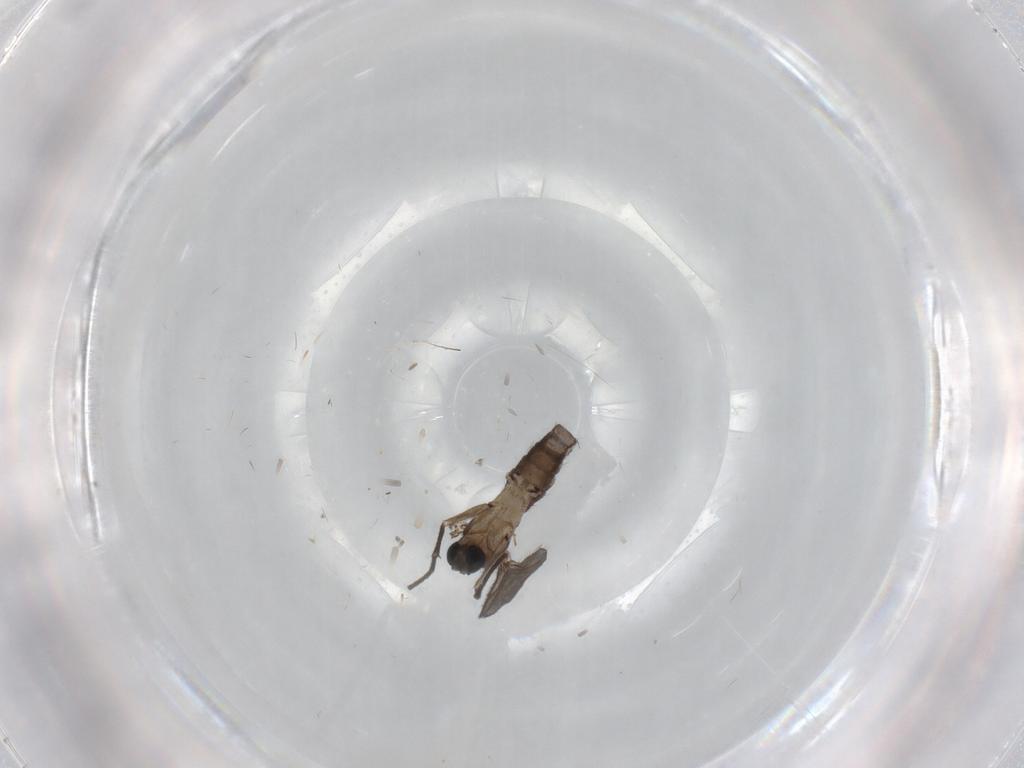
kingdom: Animalia
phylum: Arthropoda
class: Insecta
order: Diptera
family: Sciaridae
